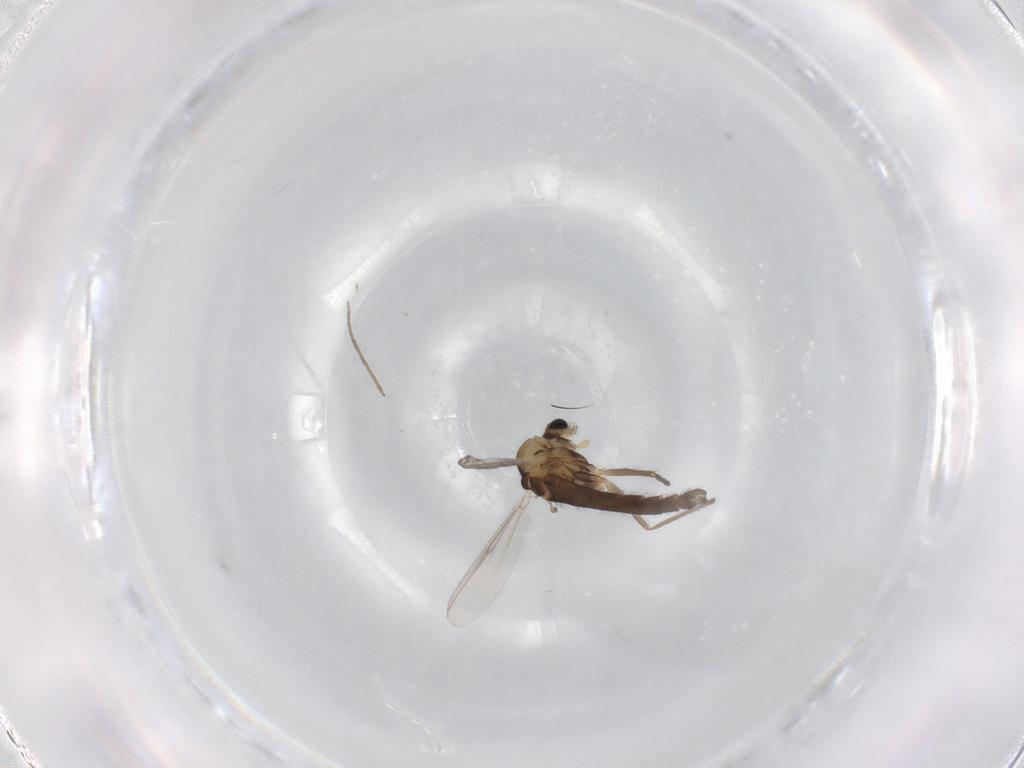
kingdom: Animalia
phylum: Arthropoda
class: Insecta
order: Diptera
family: Chironomidae
